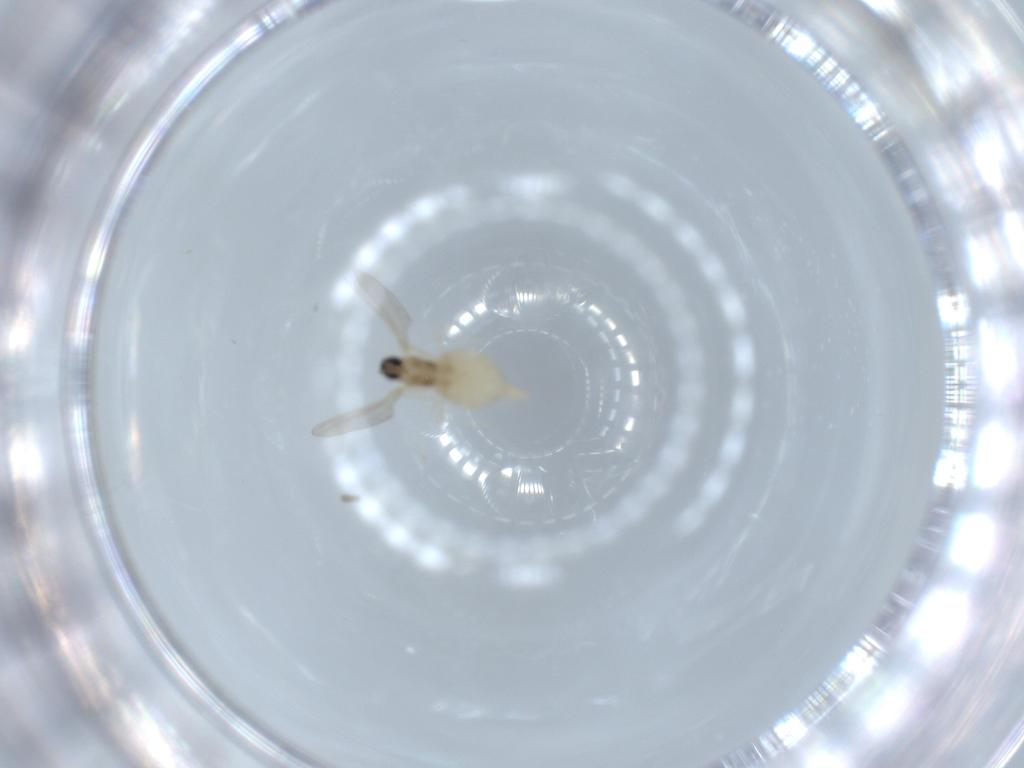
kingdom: Animalia
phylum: Arthropoda
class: Insecta
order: Diptera
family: Cecidomyiidae
